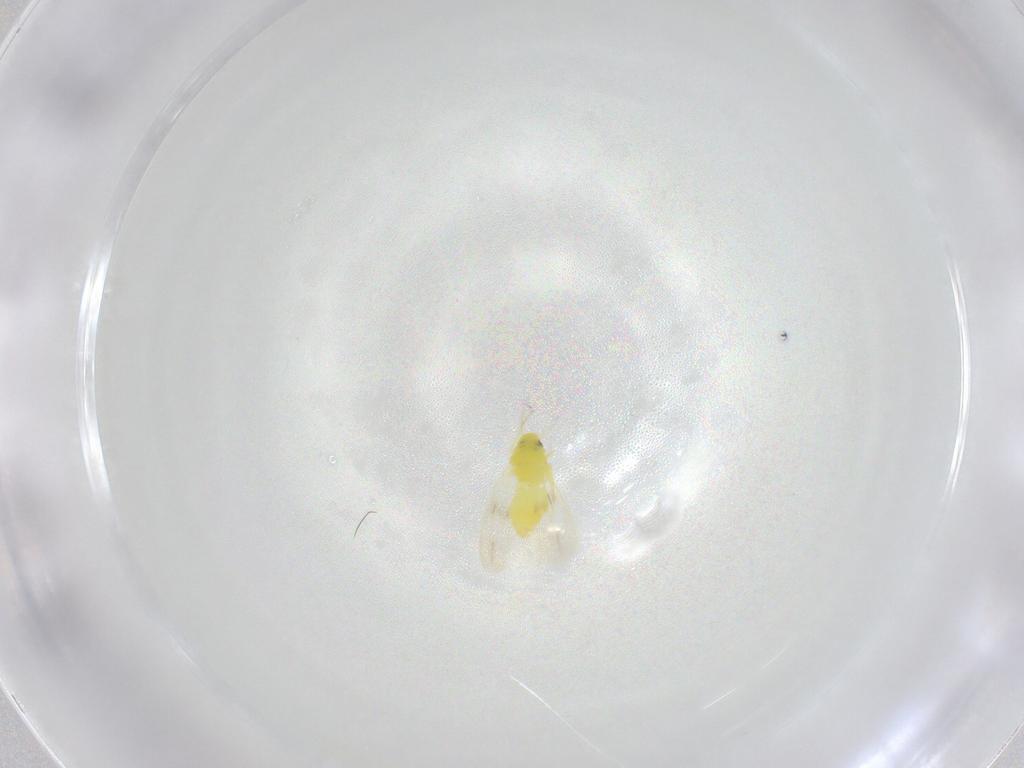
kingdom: Animalia
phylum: Arthropoda
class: Insecta
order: Hemiptera
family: Aleyrodidae
